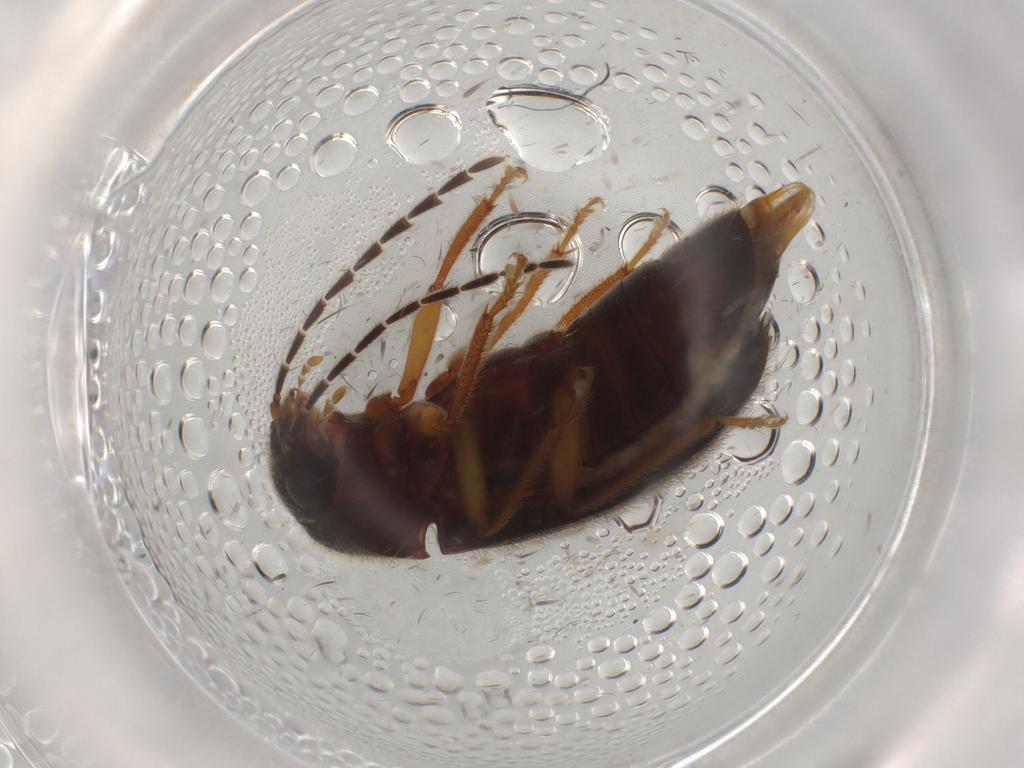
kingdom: Animalia
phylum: Arthropoda
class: Insecta
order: Coleoptera
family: Ptilodactylidae
